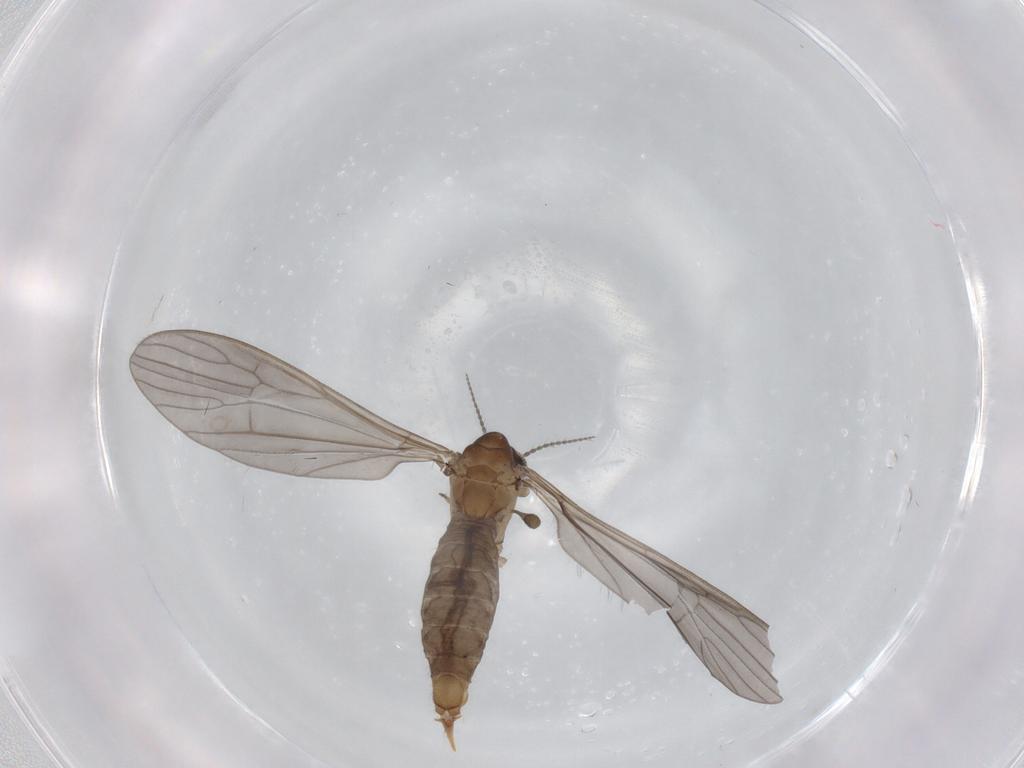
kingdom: Animalia
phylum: Arthropoda
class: Insecta
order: Diptera
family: Limoniidae
